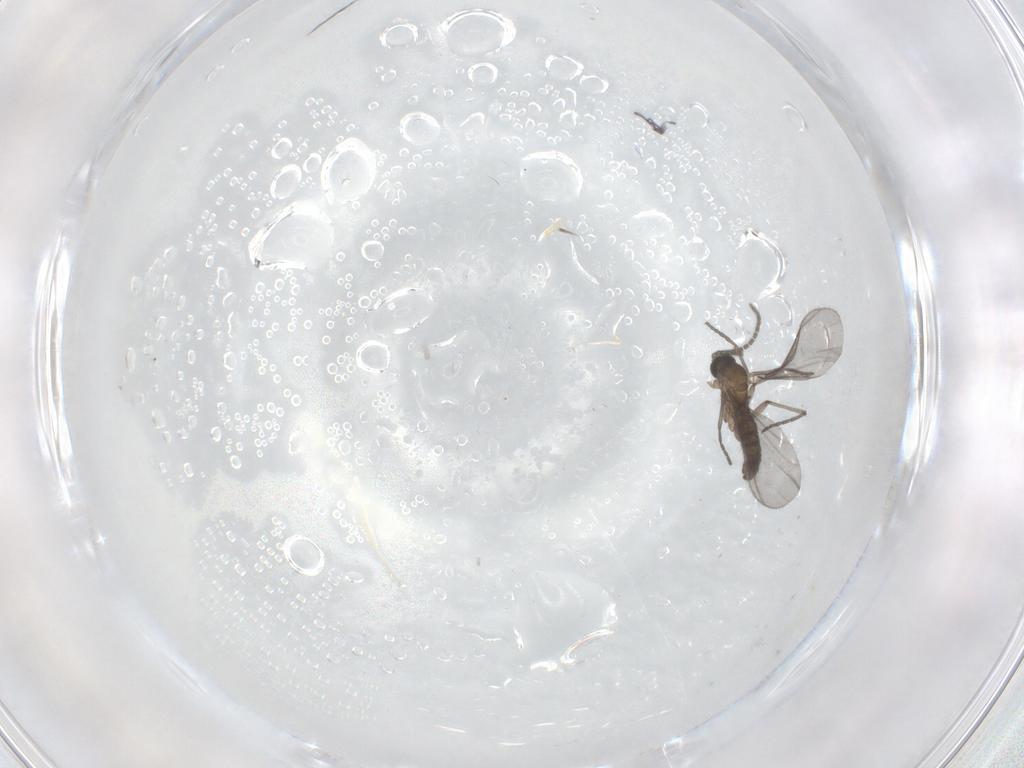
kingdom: Animalia
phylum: Arthropoda
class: Insecta
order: Diptera
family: Sciaridae
